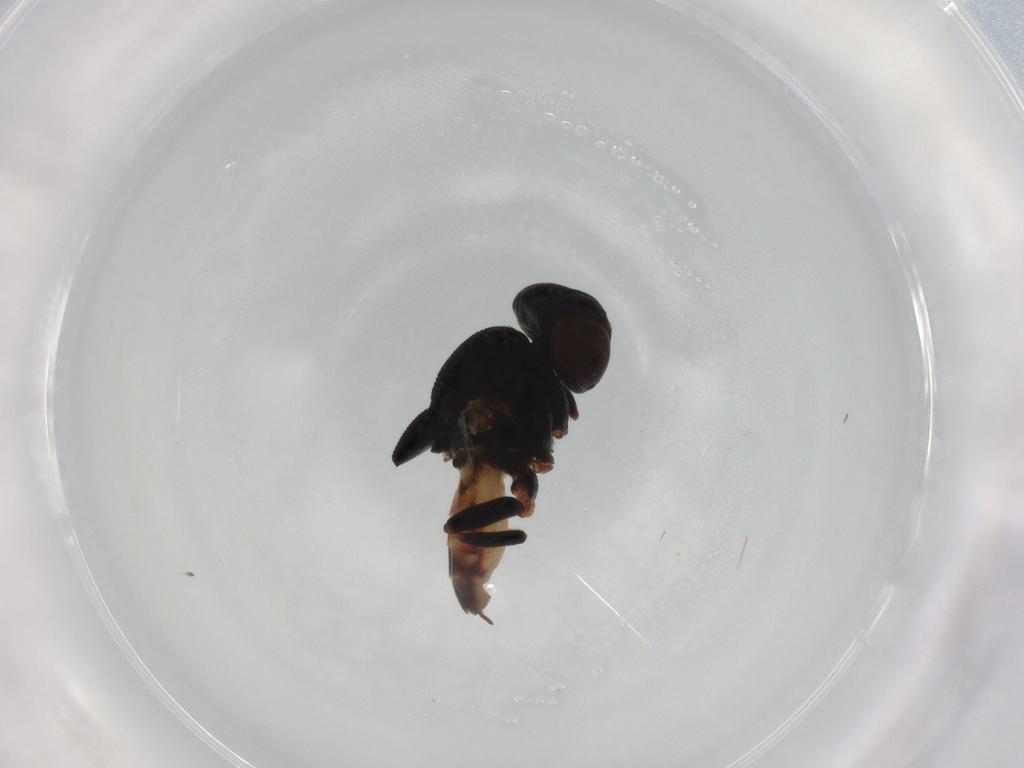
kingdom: Animalia
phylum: Arthropoda
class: Insecta
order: Diptera
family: Chloropidae
